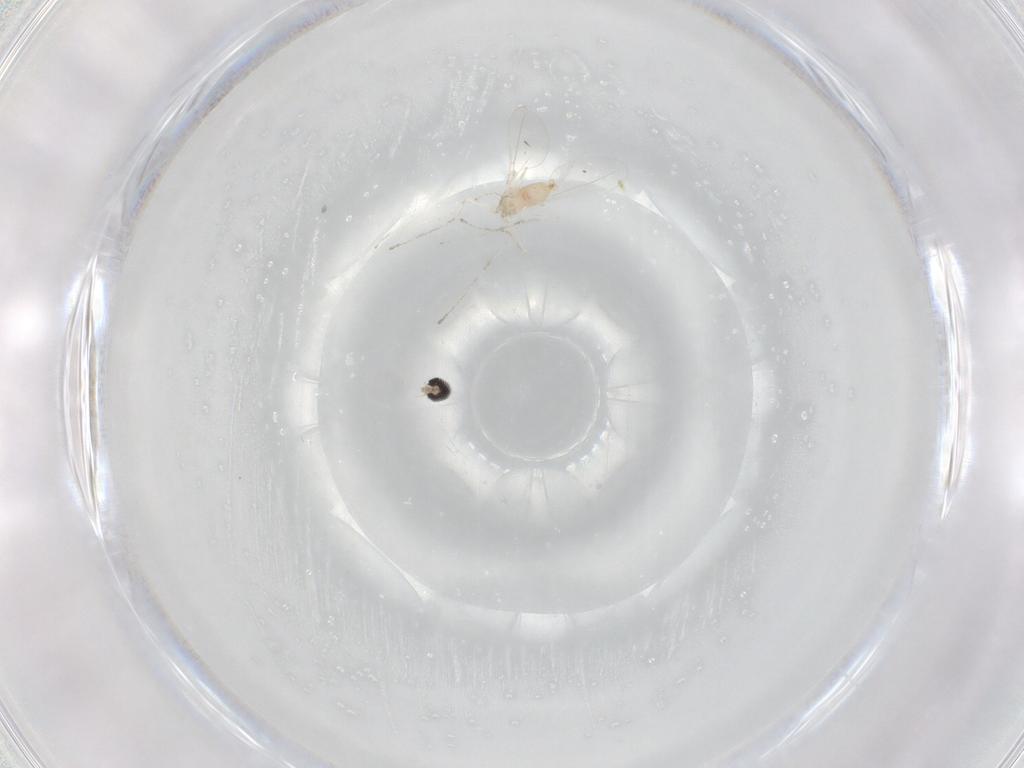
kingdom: Animalia
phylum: Arthropoda
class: Insecta
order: Diptera
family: Cecidomyiidae
